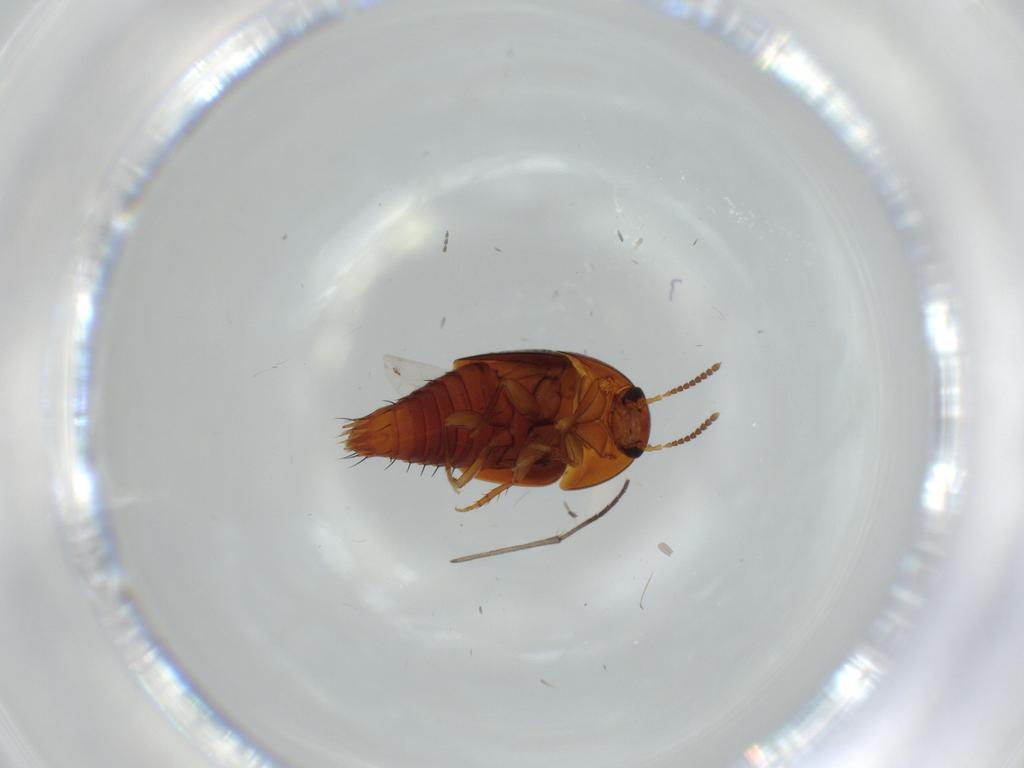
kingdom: Animalia
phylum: Arthropoda
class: Insecta
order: Coleoptera
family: Staphylinidae
